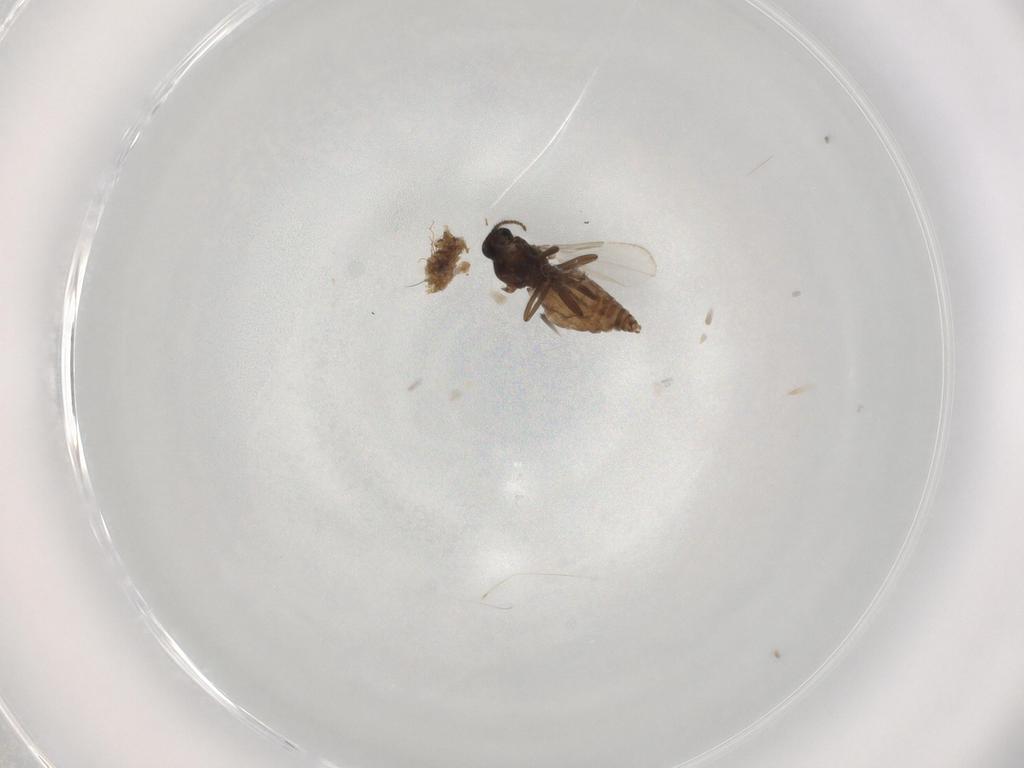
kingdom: Animalia
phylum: Arthropoda
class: Insecta
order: Diptera
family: Ceratopogonidae
